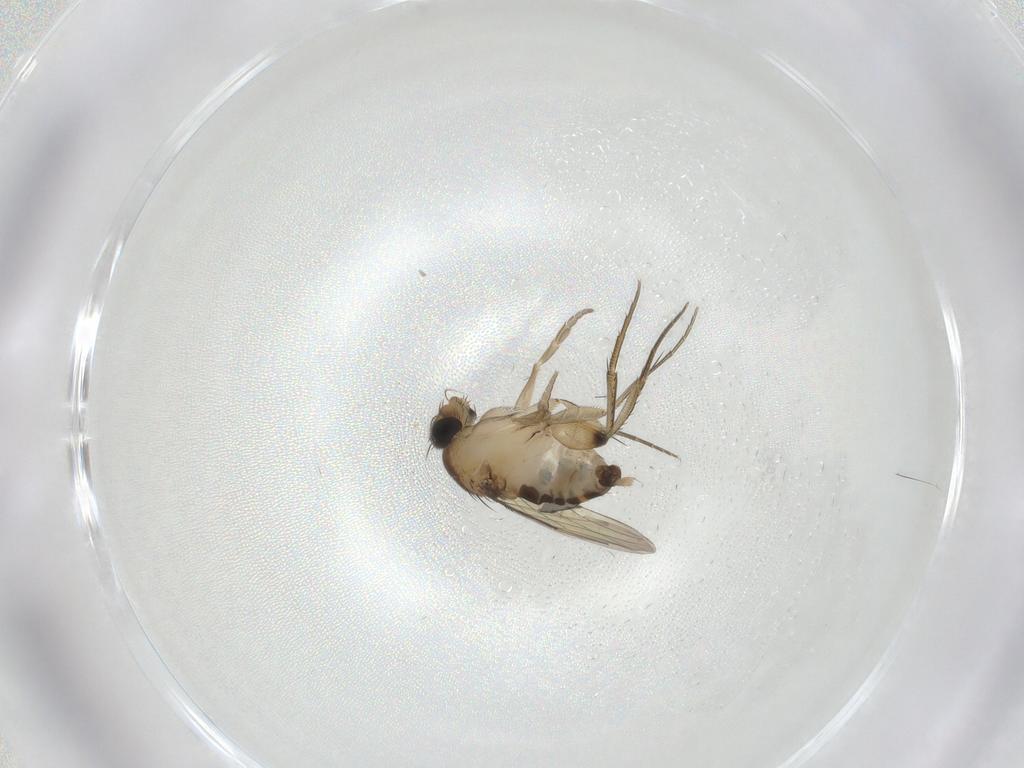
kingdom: Animalia
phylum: Arthropoda
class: Insecta
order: Diptera
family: Phoridae
